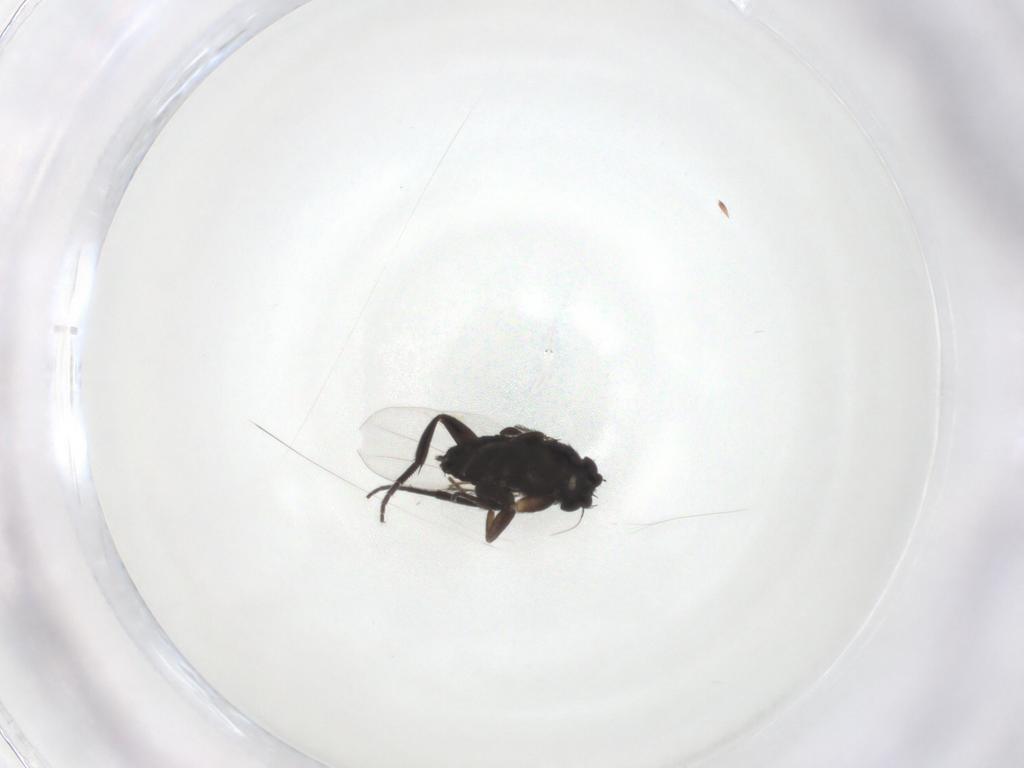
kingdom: Animalia
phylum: Arthropoda
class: Insecta
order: Diptera
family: Phoridae
